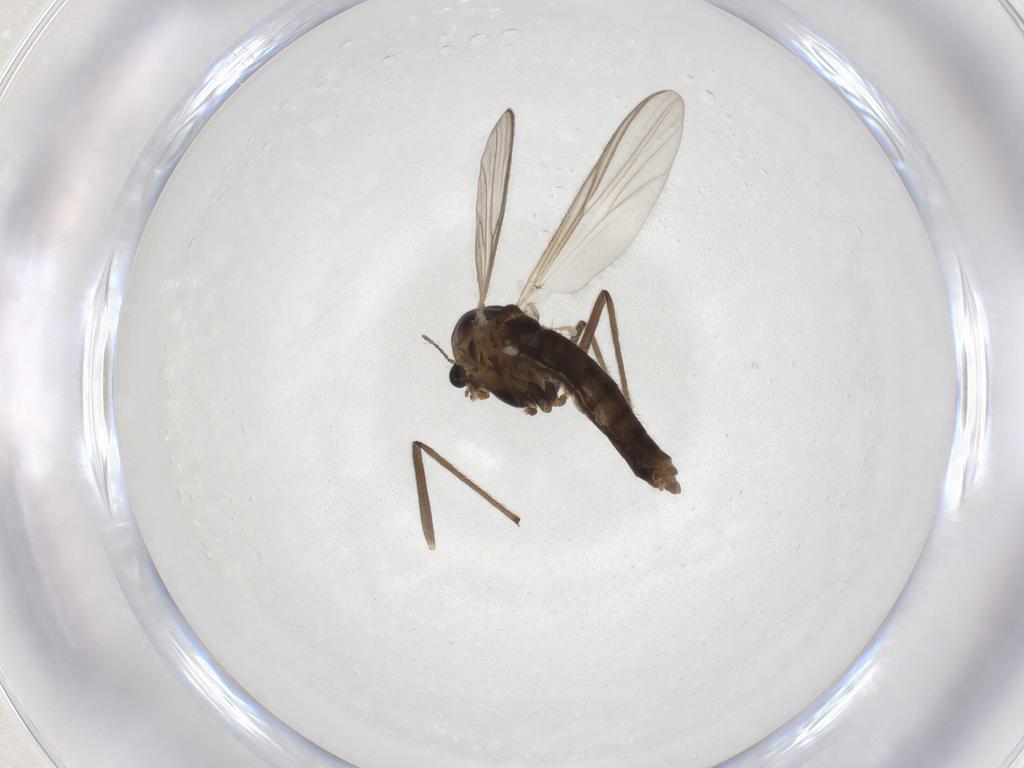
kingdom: Animalia
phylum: Arthropoda
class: Insecta
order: Diptera
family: Chironomidae
